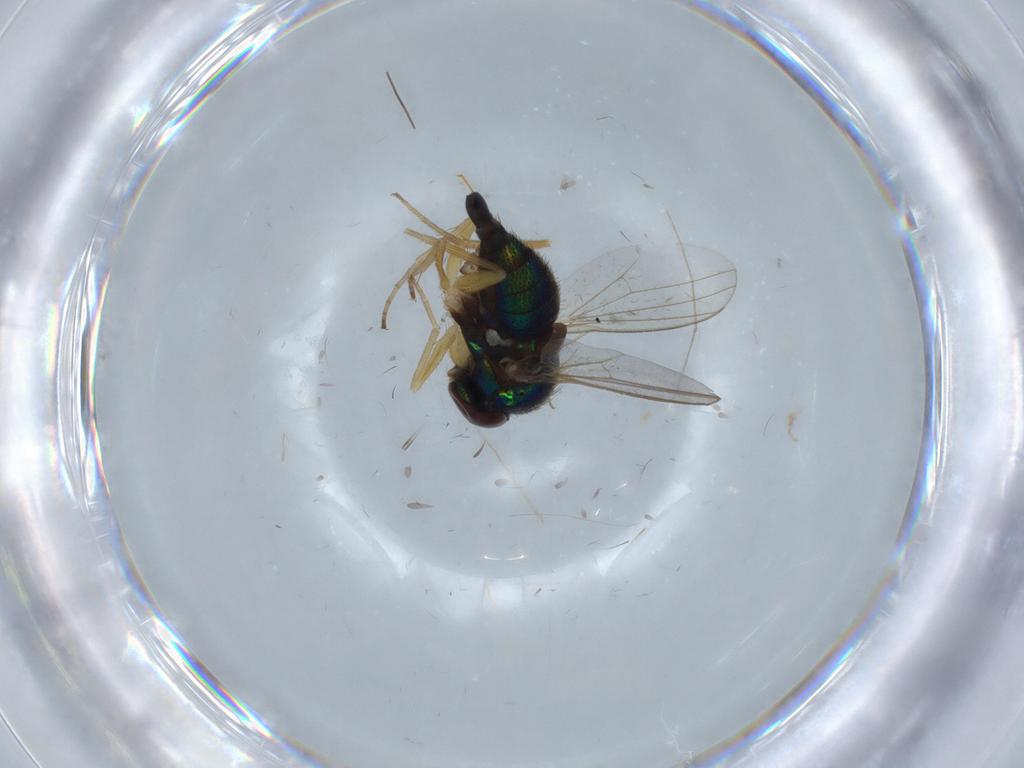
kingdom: Animalia
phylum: Arthropoda
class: Insecta
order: Diptera
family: Dolichopodidae
